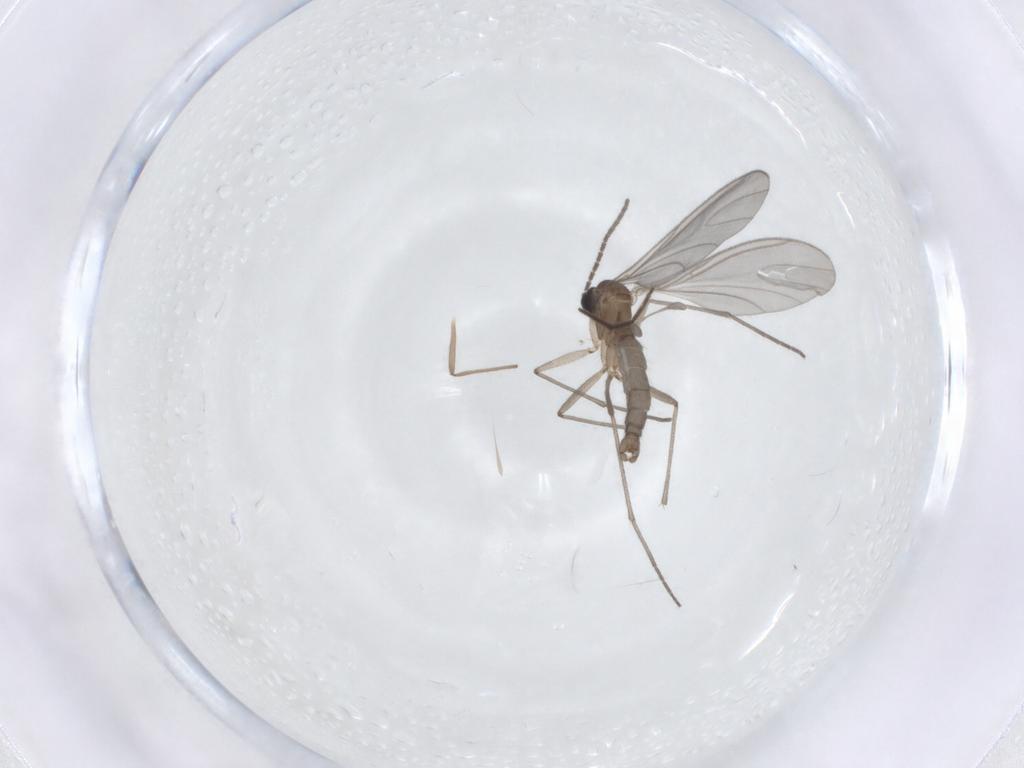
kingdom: Animalia
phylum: Arthropoda
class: Insecta
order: Diptera
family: Sciaridae
